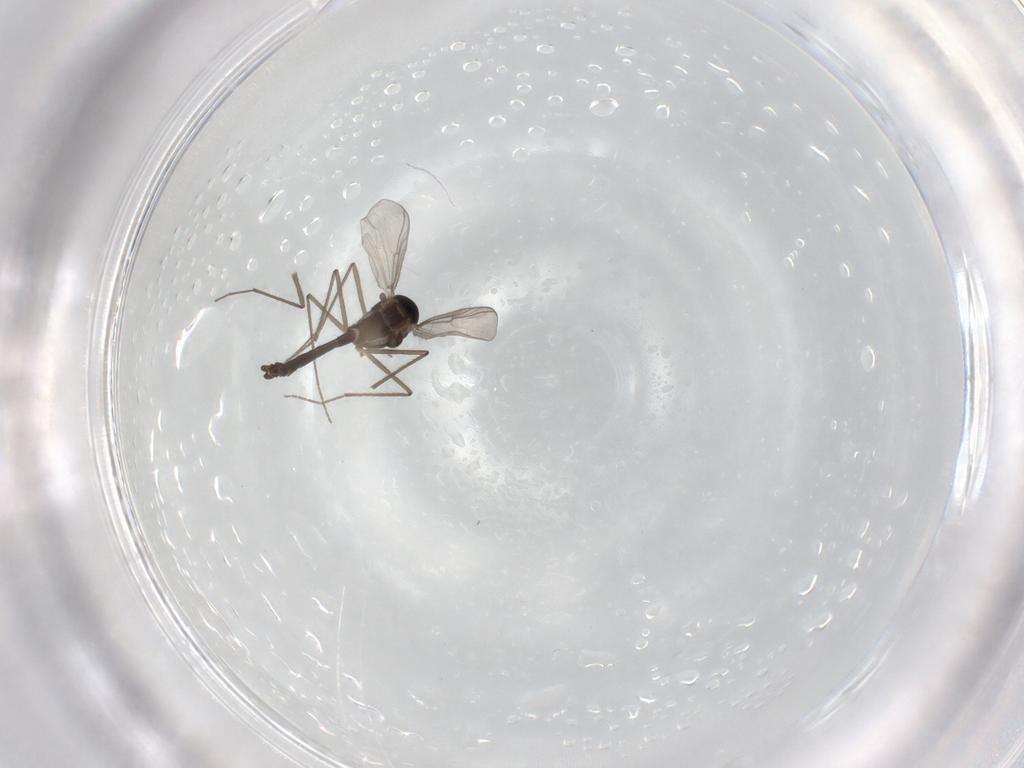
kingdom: Animalia
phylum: Arthropoda
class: Insecta
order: Diptera
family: Chironomidae
